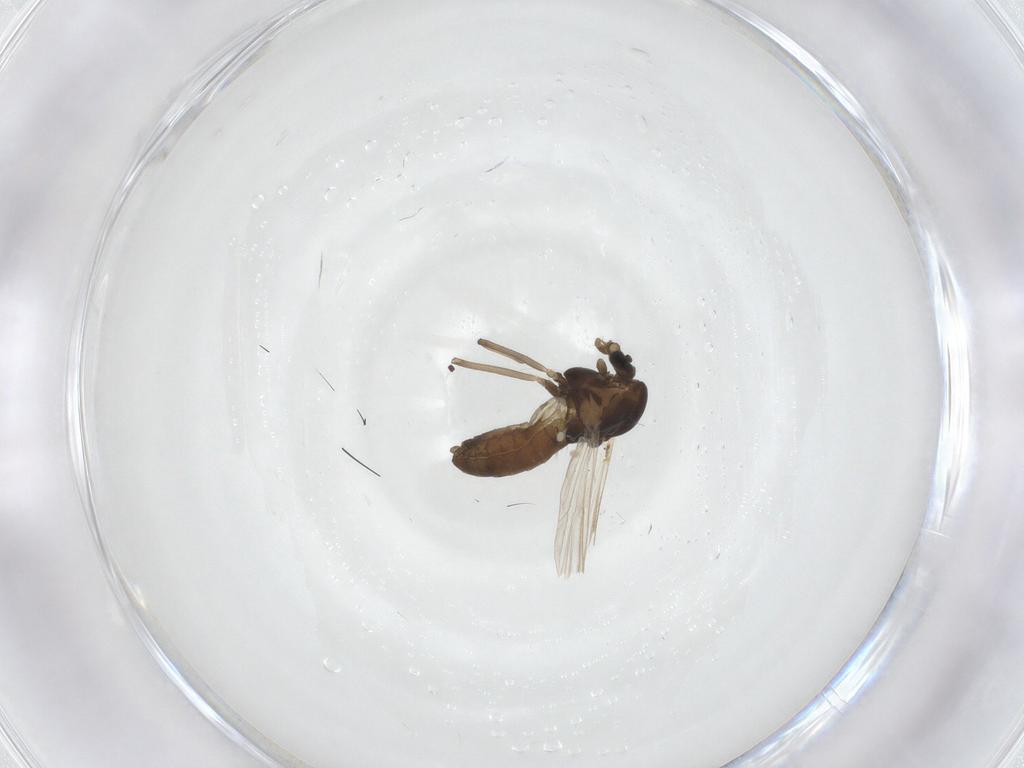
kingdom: Animalia
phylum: Arthropoda
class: Insecta
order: Diptera
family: Chironomidae
